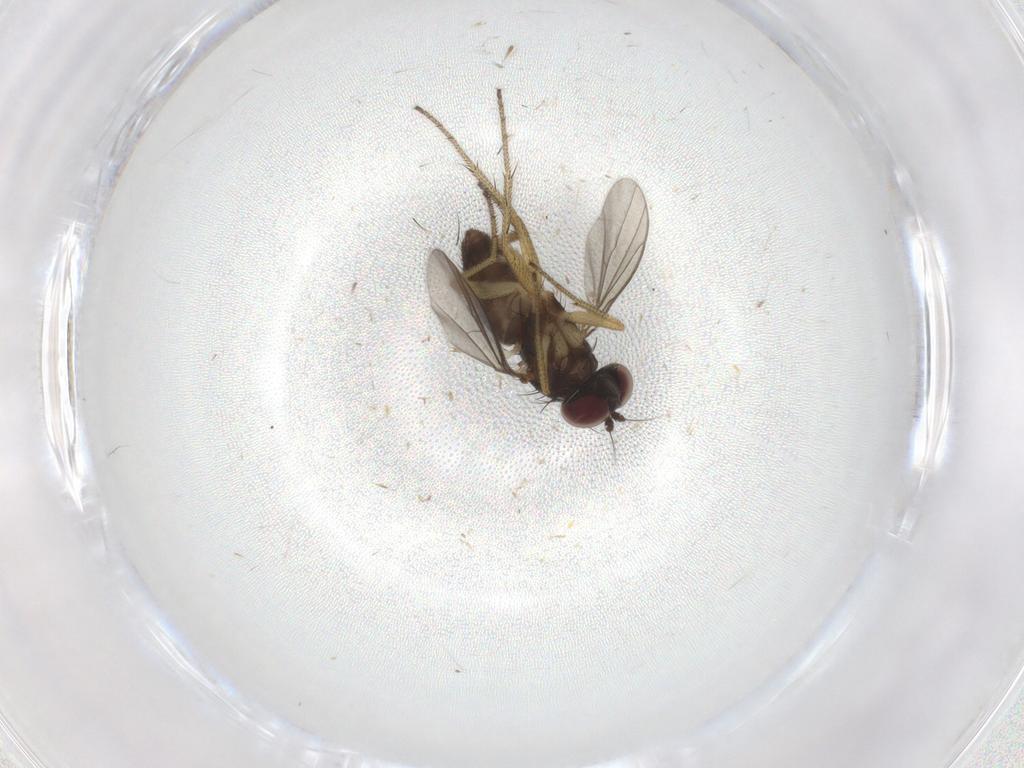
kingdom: Animalia
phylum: Arthropoda
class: Insecta
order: Diptera
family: Dolichopodidae
